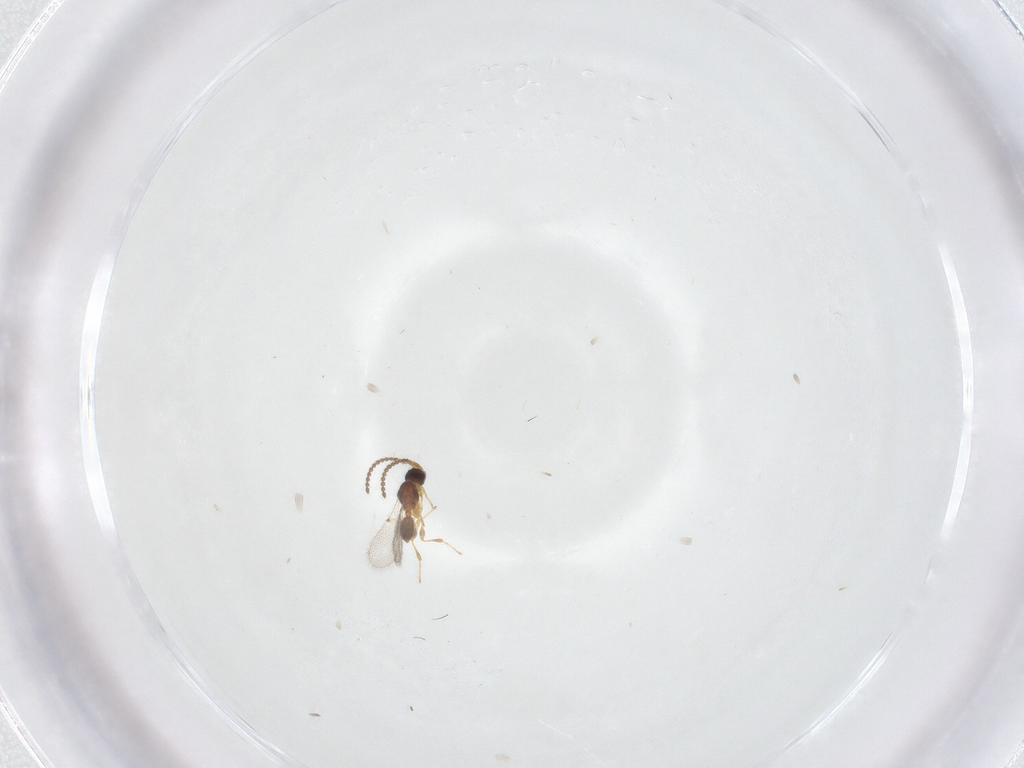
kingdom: Animalia
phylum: Arthropoda
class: Insecta
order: Hymenoptera
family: Diapriidae
